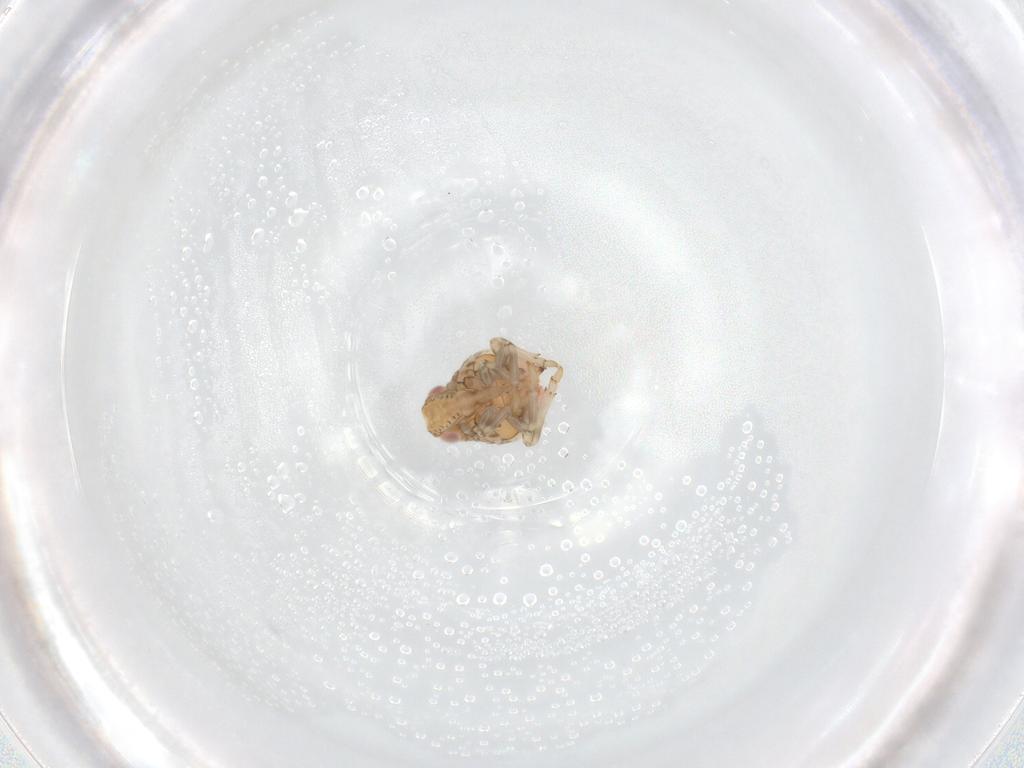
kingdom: Animalia
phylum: Arthropoda
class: Insecta
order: Hemiptera
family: Nogodinidae
